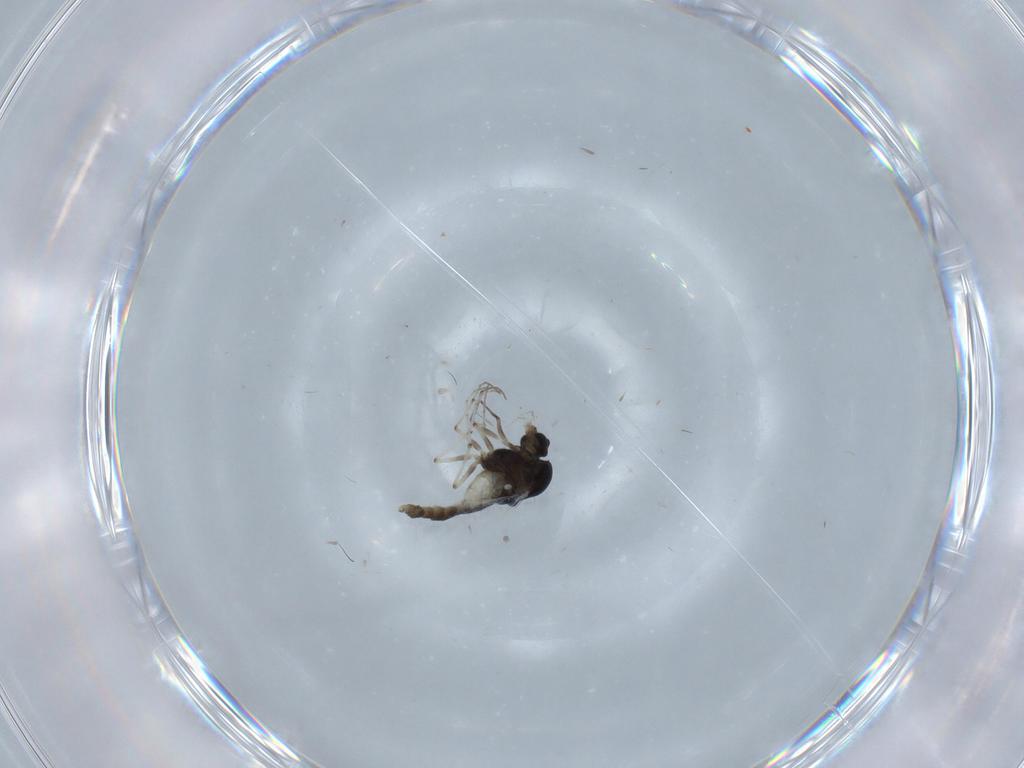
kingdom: Animalia
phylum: Arthropoda
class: Insecta
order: Diptera
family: Chironomidae
